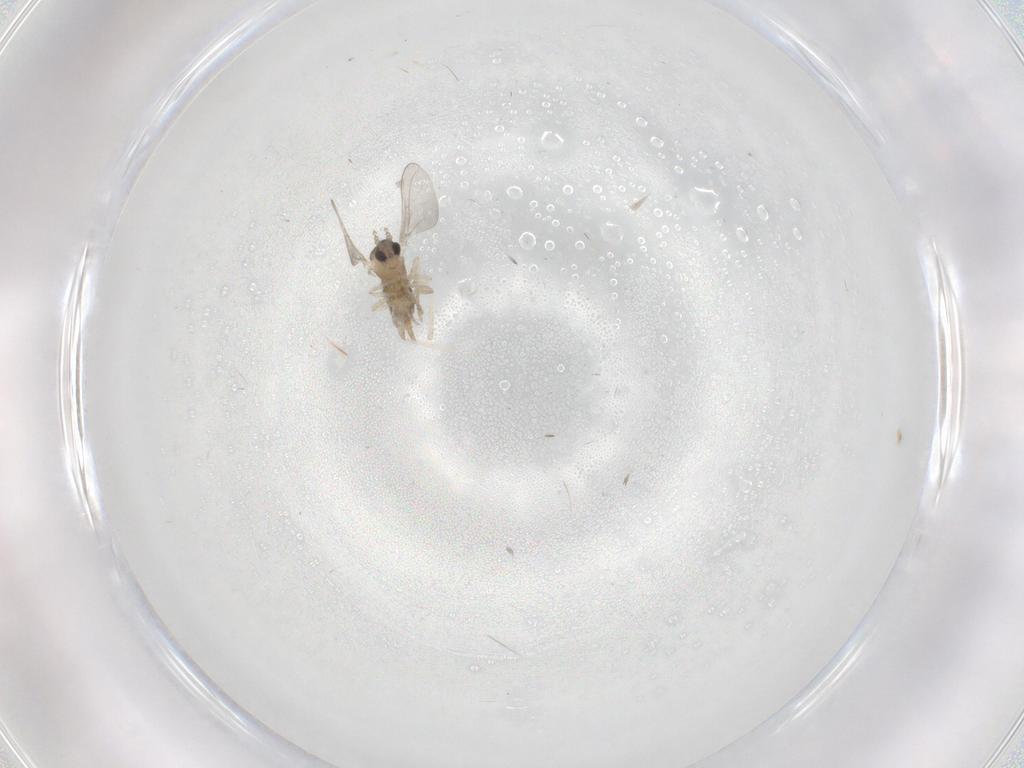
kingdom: Animalia
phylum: Arthropoda
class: Insecta
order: Diptera
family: Cecidomyiidae
